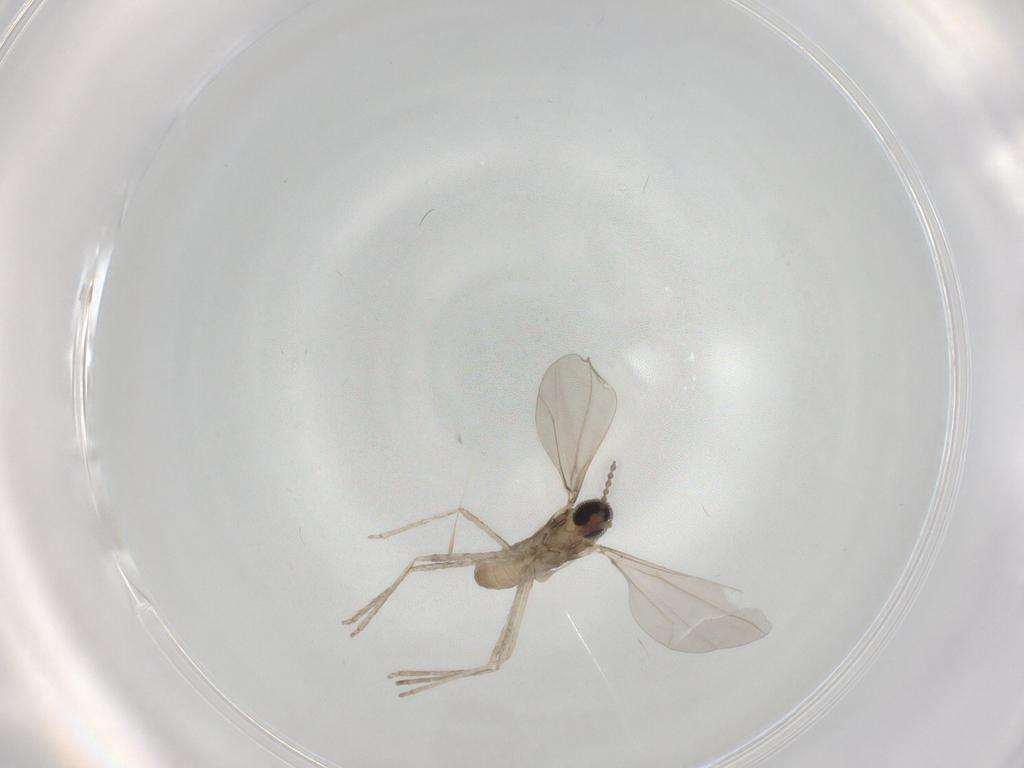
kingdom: Animalia
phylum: Arthropoda
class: Insecta
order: Diptera
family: Cecidomyiidae
